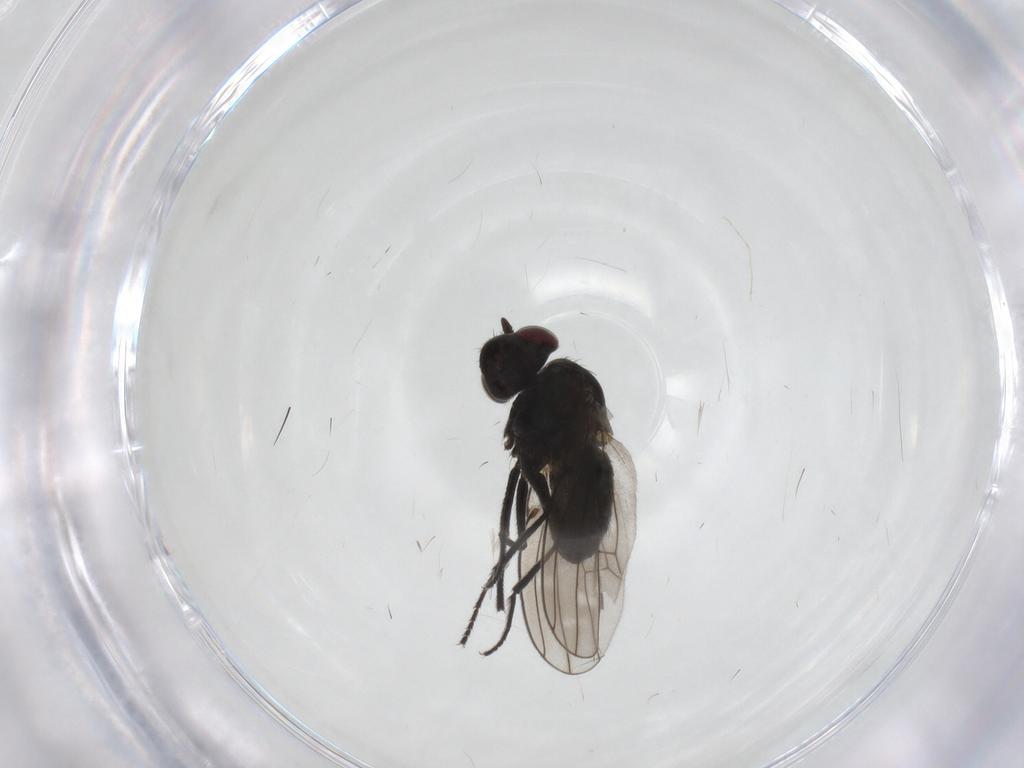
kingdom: Animalia
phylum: Arthropoda
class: Insecta
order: Diptera
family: Ephydridae
